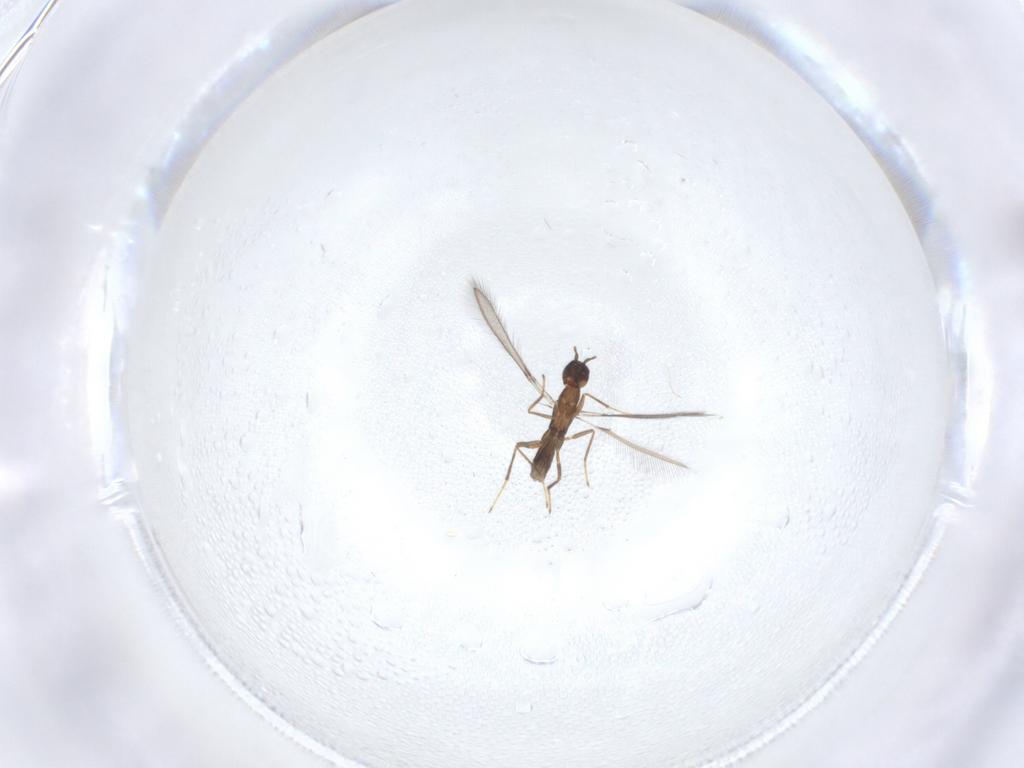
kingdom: Animalia
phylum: Arthropoda
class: Insecta
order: Hymenoptera
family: Mymaridae
